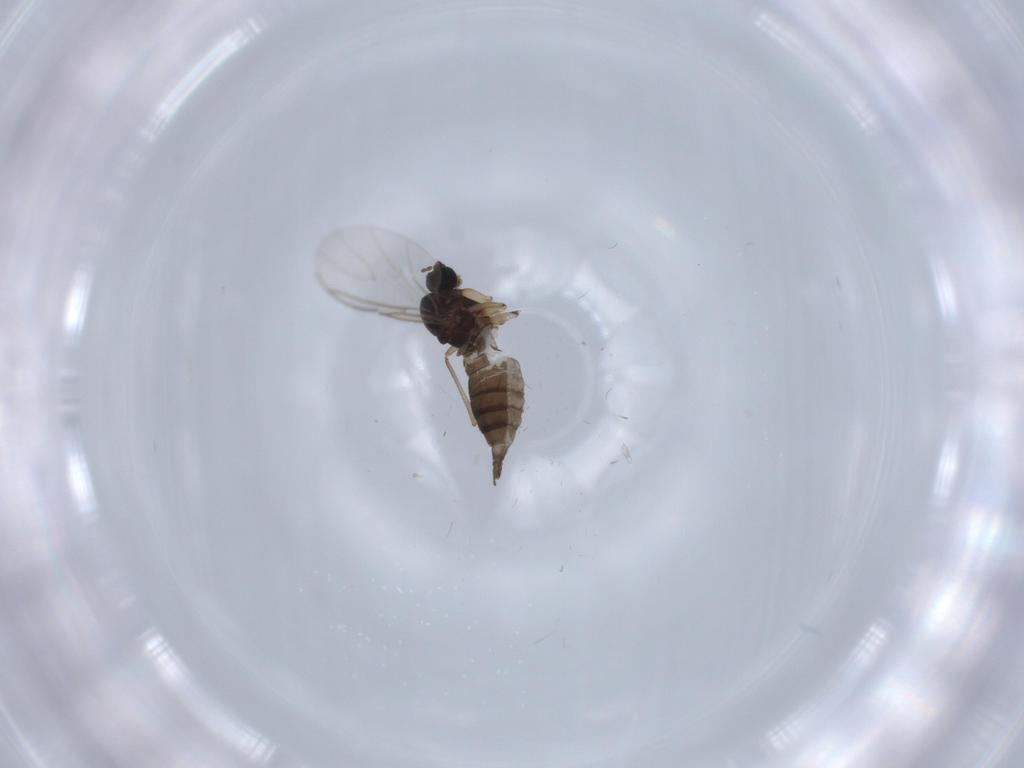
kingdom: Animalia
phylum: Arthropoda
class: Insecta
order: Diptera
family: Sciaridae
